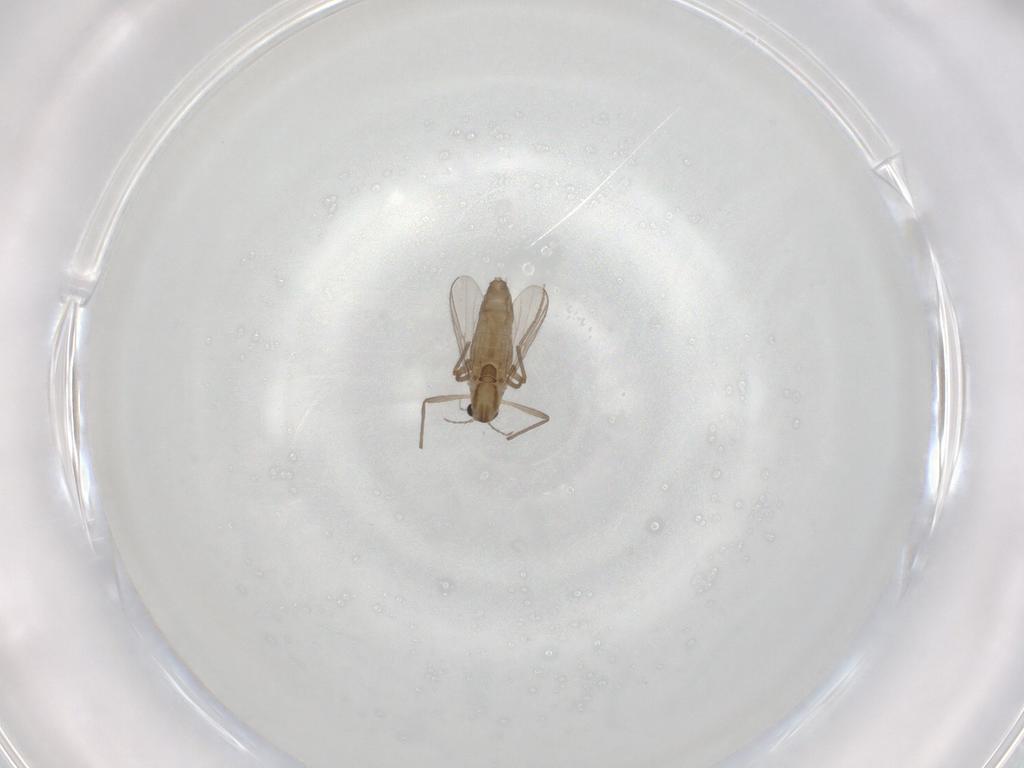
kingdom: Animalia
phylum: Arthropoda
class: Insecta
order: Diptera
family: Chironomidae
